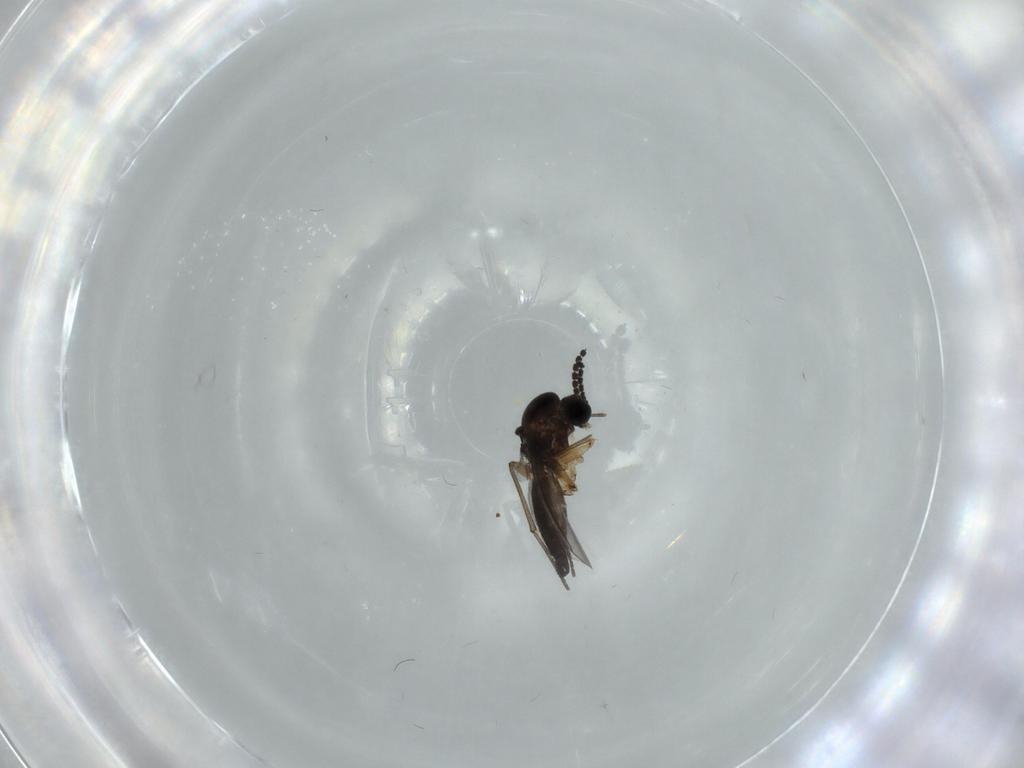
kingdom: Animalia
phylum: Arthropoda
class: Insecta
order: Diptera
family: Sciaridae
